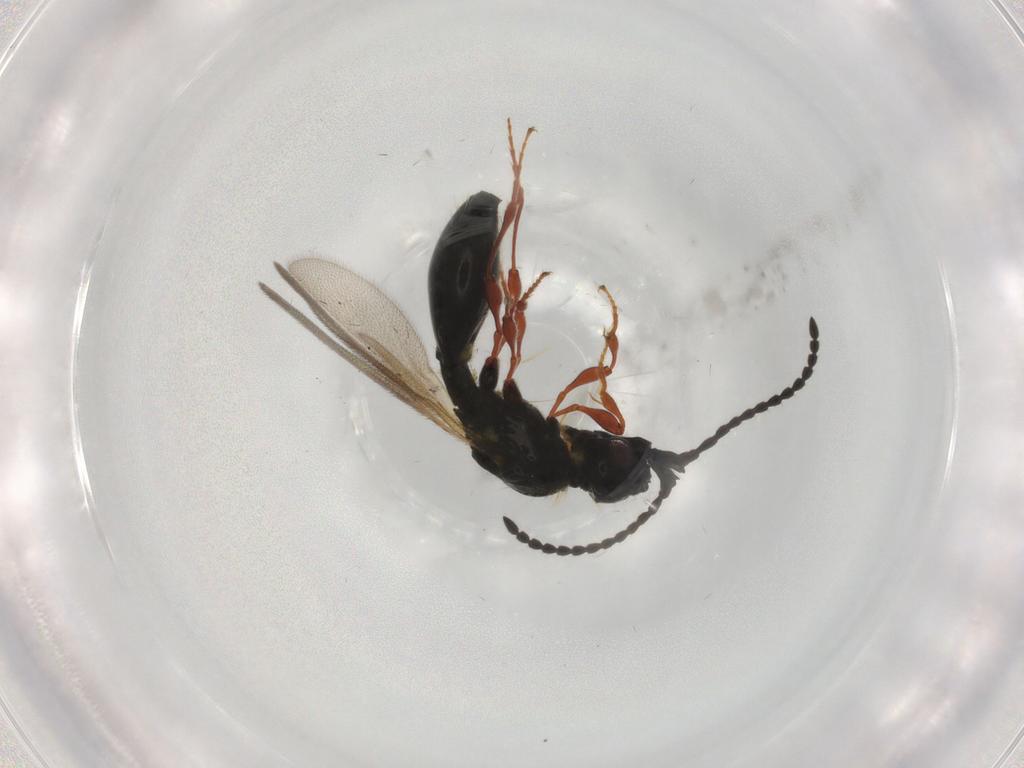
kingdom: Animalia
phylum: Arthropoda
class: Insecta
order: Hymenoptera
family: Diapriidae
